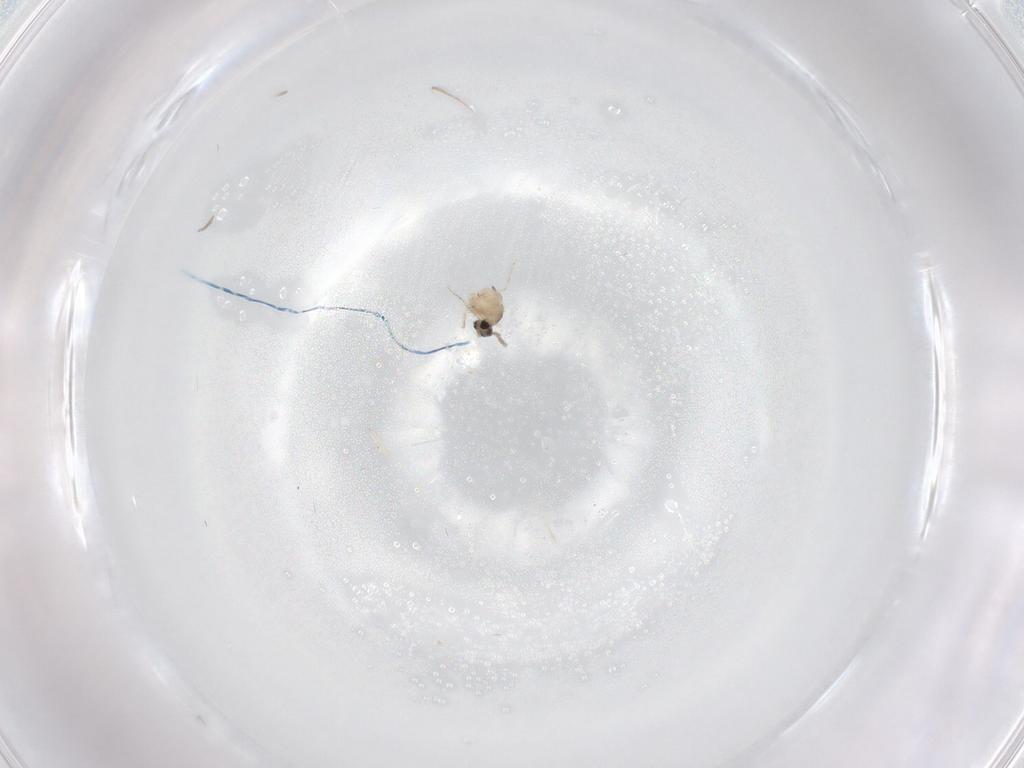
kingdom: Animalia
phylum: Arthropoda
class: Insecta
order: Diptera
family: Cecidomyiidae
